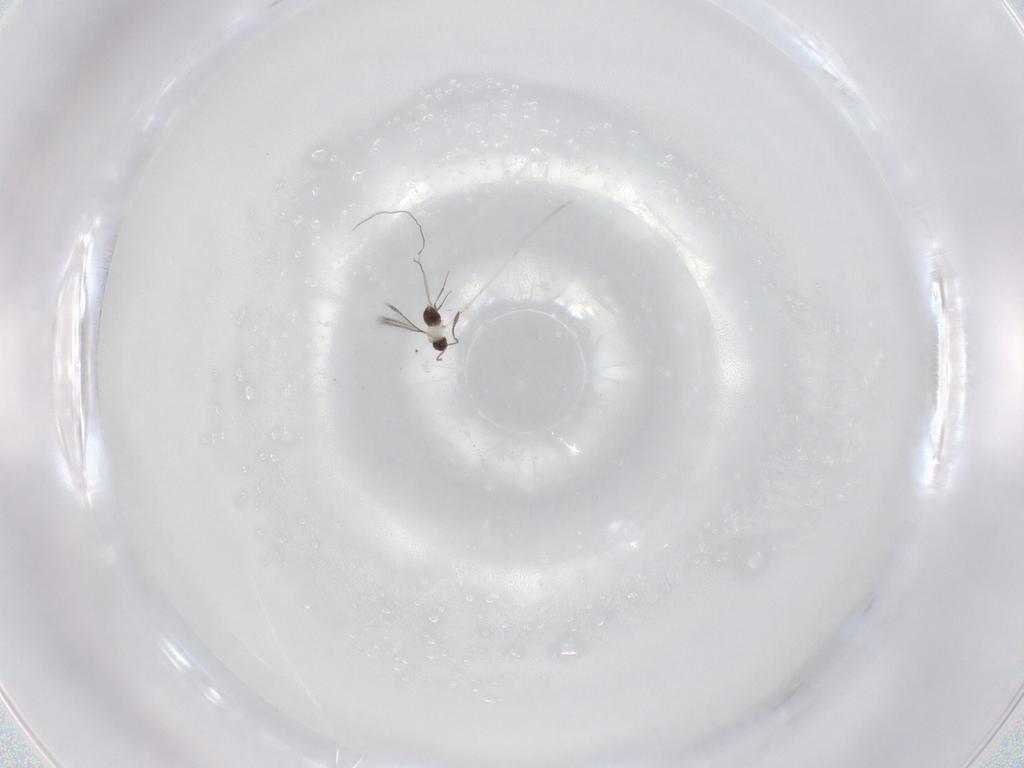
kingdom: Animalia
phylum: Arthropoda
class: Insecta
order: Hymenoptera
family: Mymaridae
